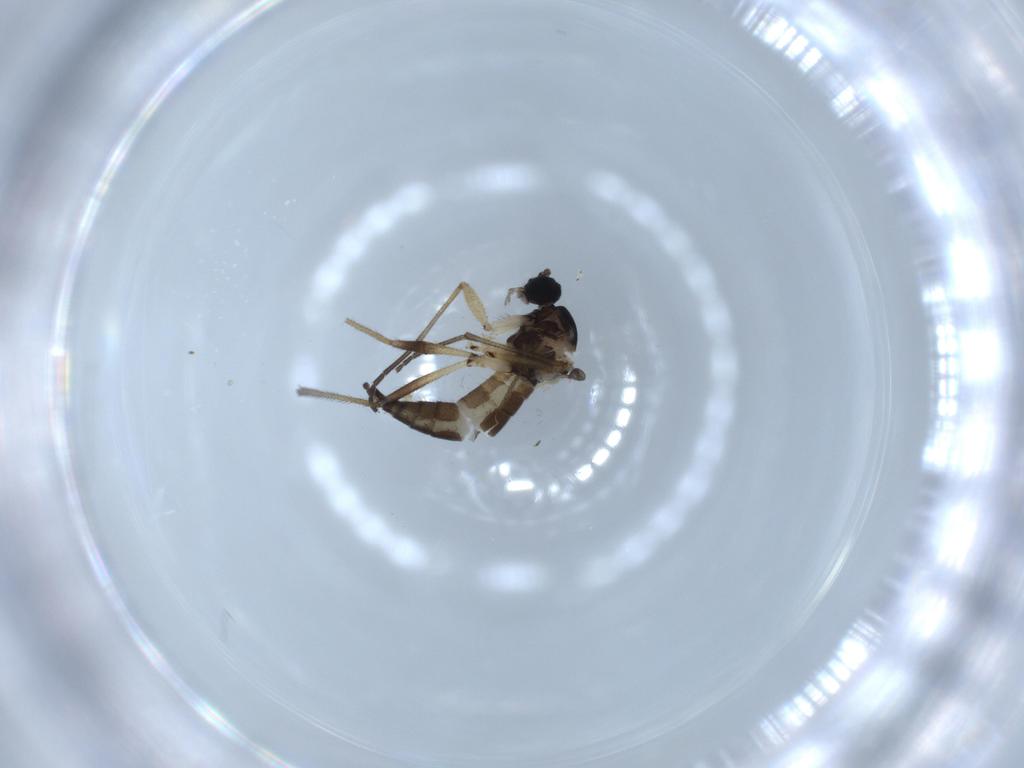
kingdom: Animalia
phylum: Arthropoda
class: Insecta
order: Diptera
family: Sciaridae
